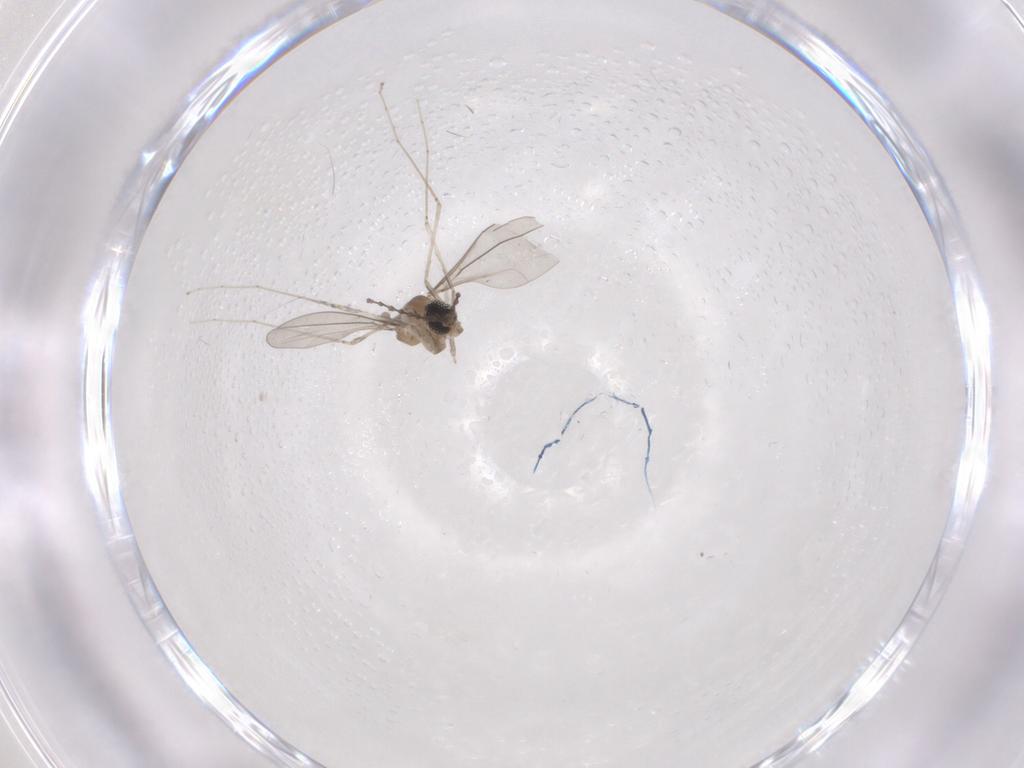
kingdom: Animalia
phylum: Arthropoda
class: Insecta
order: Diptera
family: Cecidomyiidae
